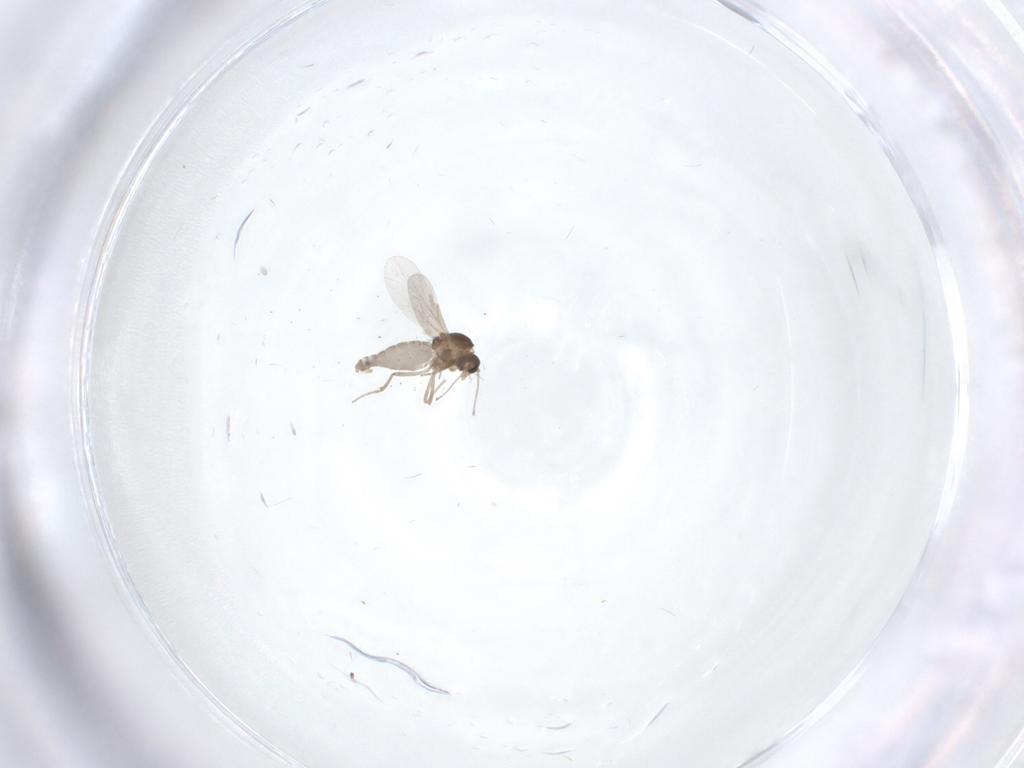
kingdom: Animalia
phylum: Arthropoda
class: Insecta
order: Diptera
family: Ceratopogonidae
